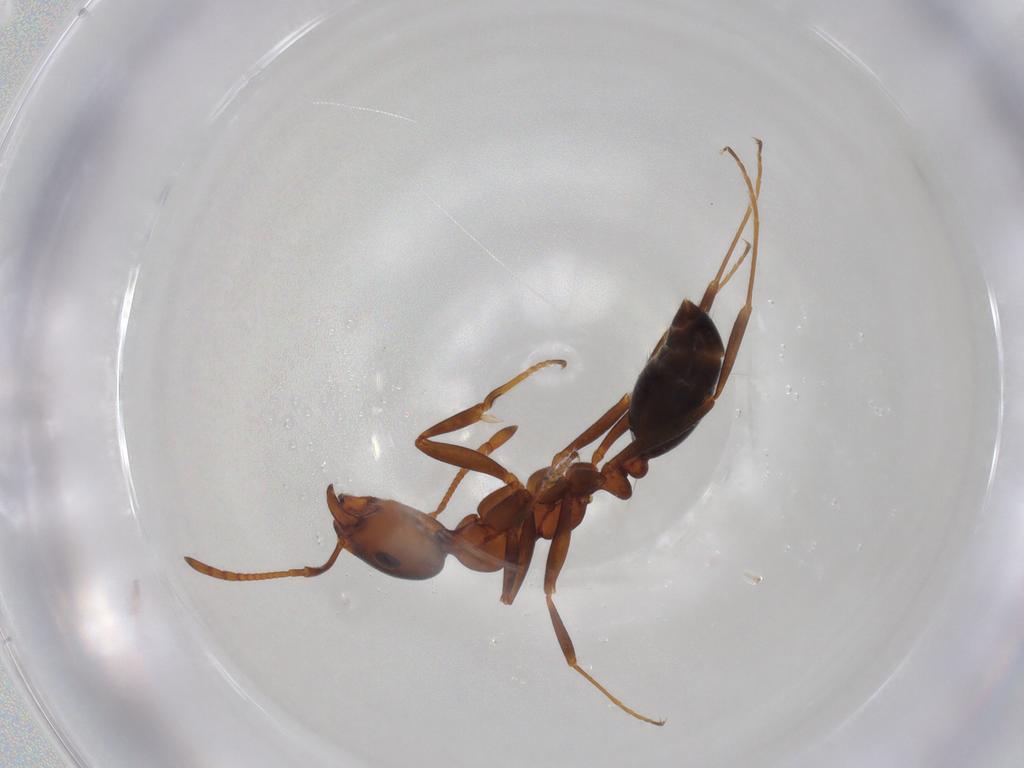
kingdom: Animalia
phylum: Arthropoda
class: Insecta
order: Hymenoptera
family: Formicidae
